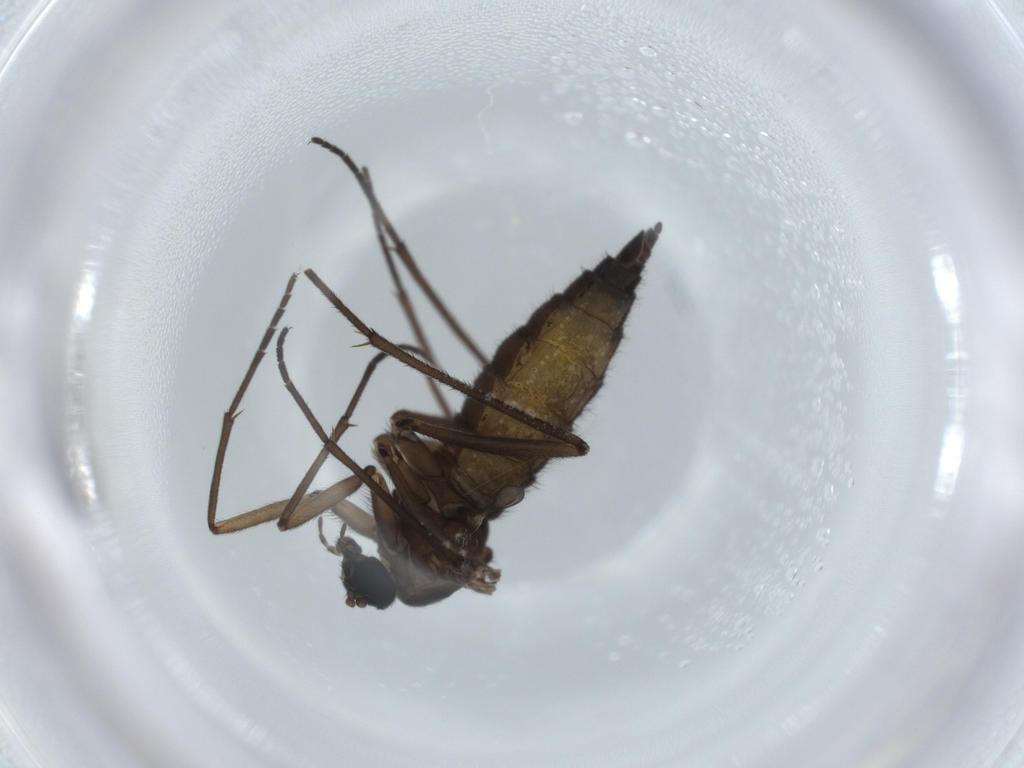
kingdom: Animalia
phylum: Arthropoda
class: Insecta
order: Diptera
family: Sciaridae
